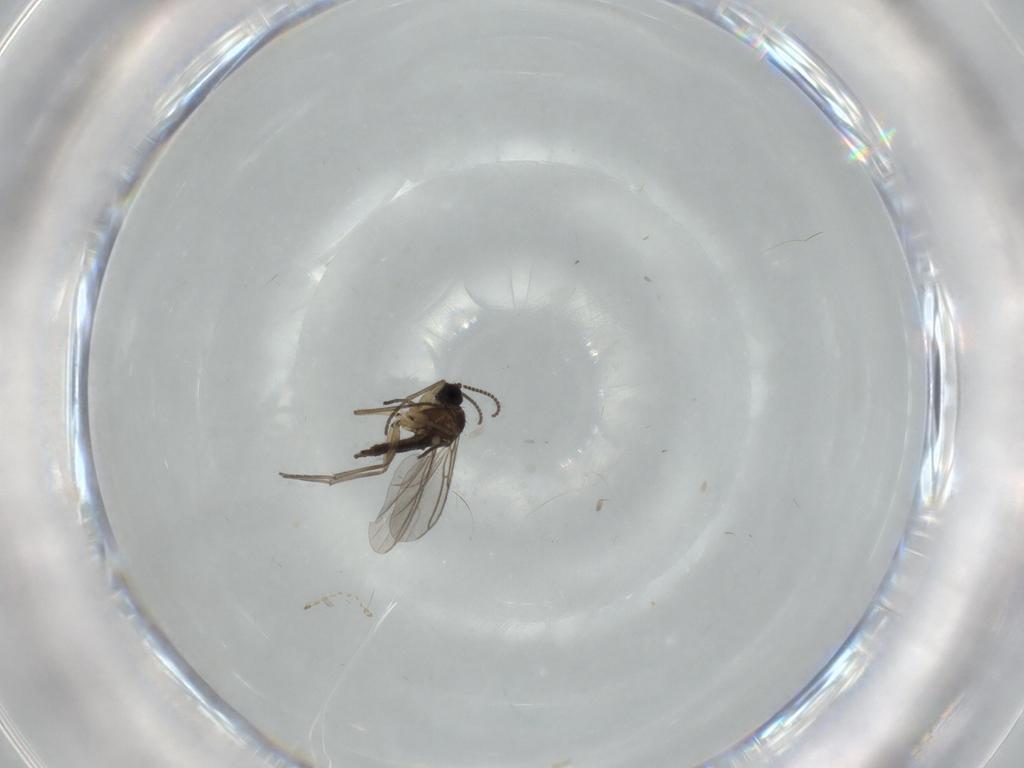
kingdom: Animalia
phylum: Arthropoda
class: Insecta
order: Diptera
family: Sciaridae
